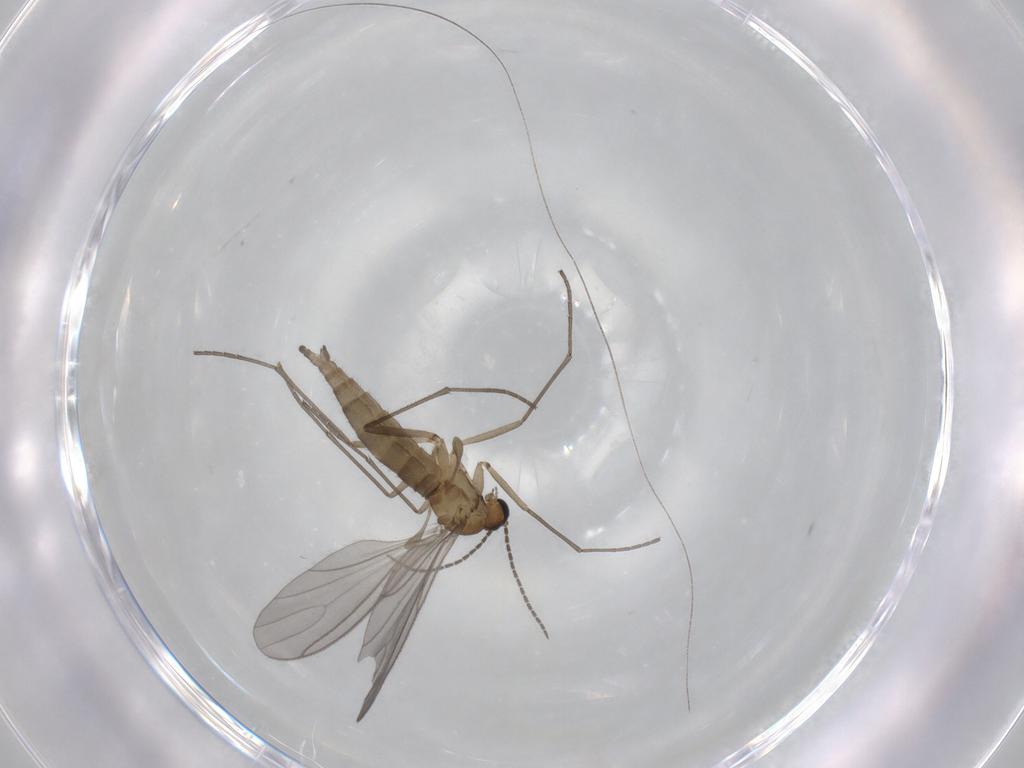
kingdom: Animalia
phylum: Arthropoda
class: Insecta
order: Diptera
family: Sciaridae
